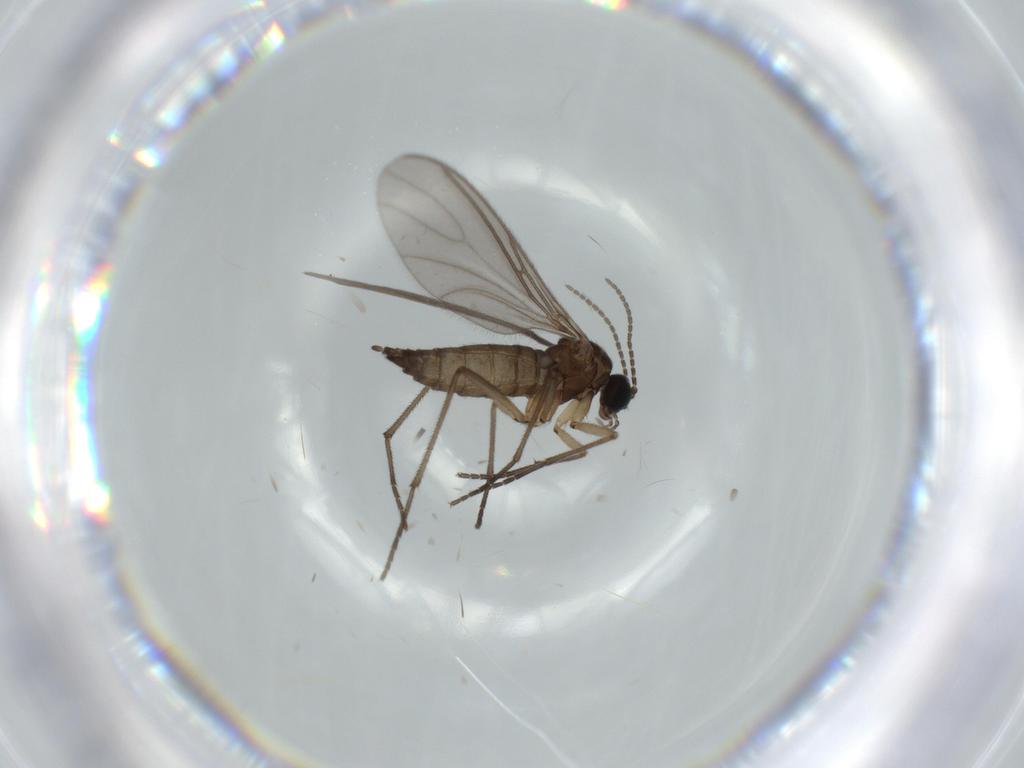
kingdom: Animalia
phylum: Arthropoda
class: Insecta
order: Diptera
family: Sciaridae
